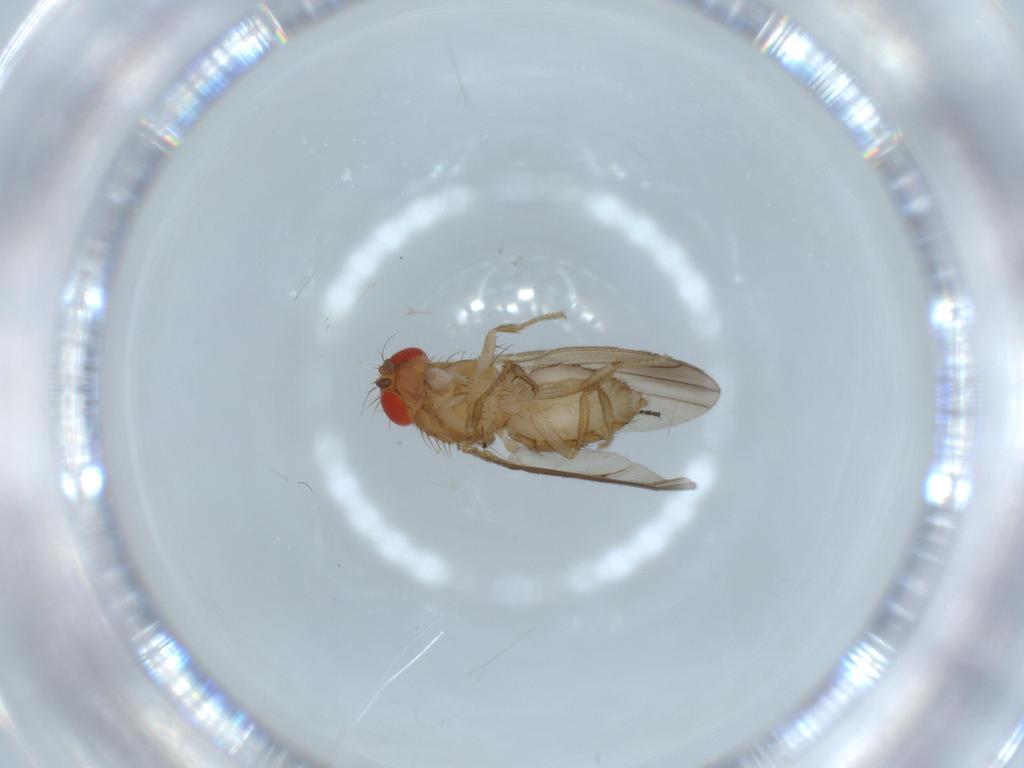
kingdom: Animalia
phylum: Arthropoda
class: Insecta
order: Diptera
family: Drosophilidae
